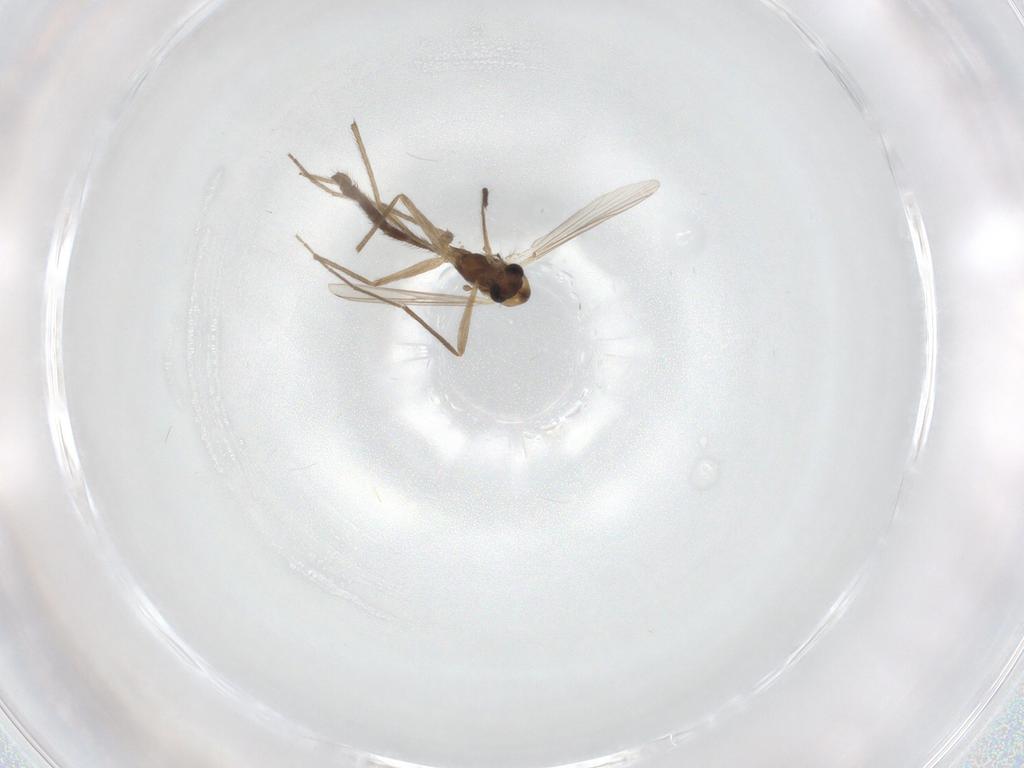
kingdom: Animalia
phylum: Arthropoda
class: Insecta
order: Diptera
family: Chironomidae
